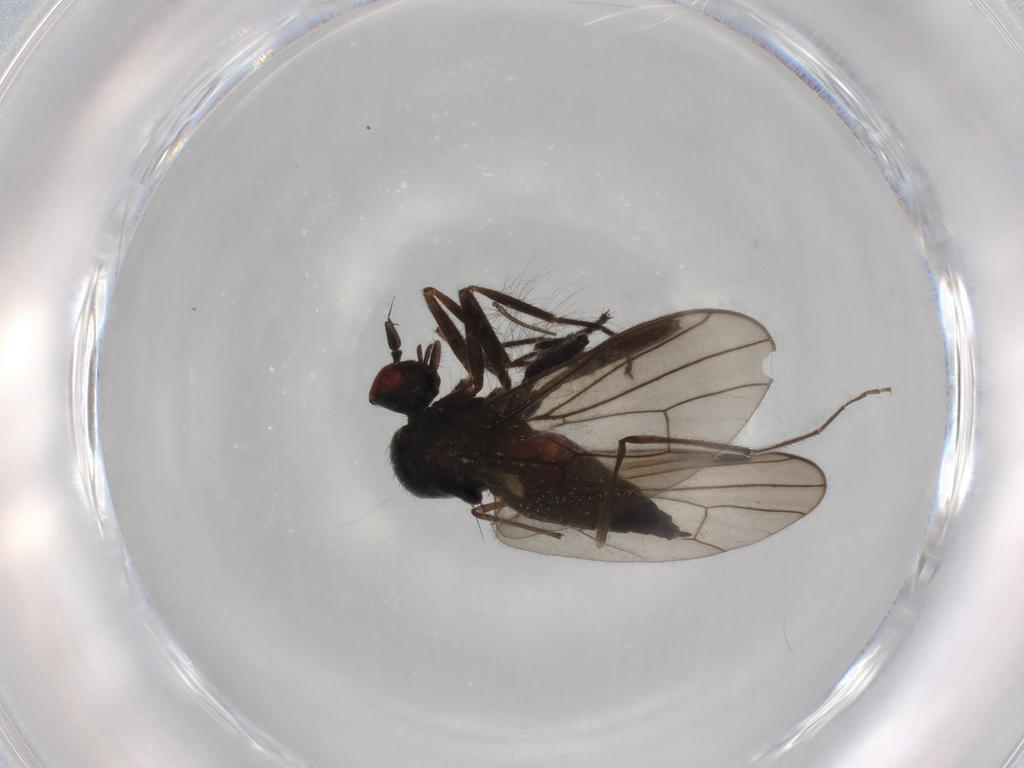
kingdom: Animalia
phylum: Arthropoda
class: Insecta
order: Diptera
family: Hybotidae
